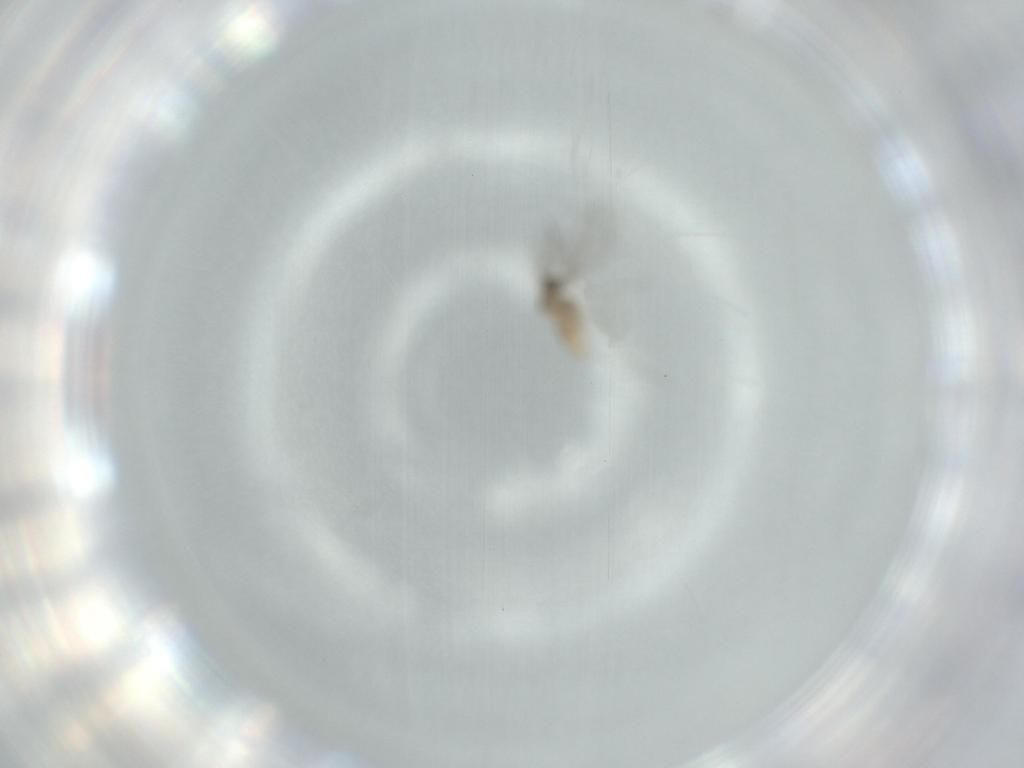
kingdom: Animalia
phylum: Arthropoda
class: Insecta
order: Diptera
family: Cecidomyiidae
